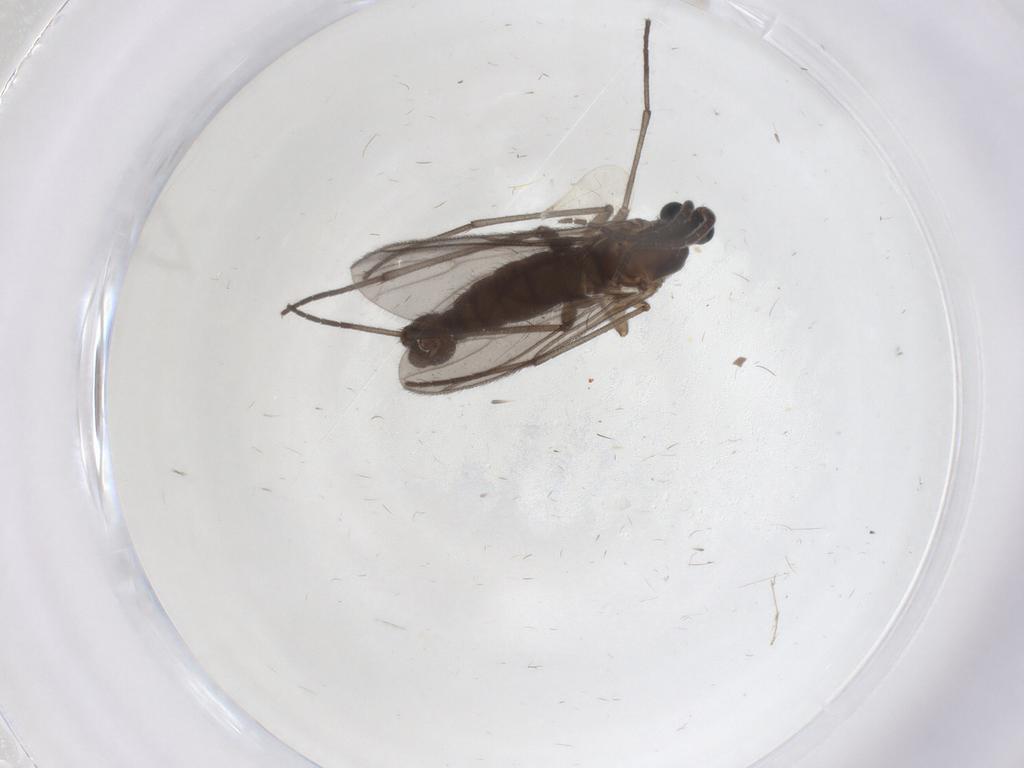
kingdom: Animalia
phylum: Arthropoda
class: Insecta
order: Diptera
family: Sciaridae
